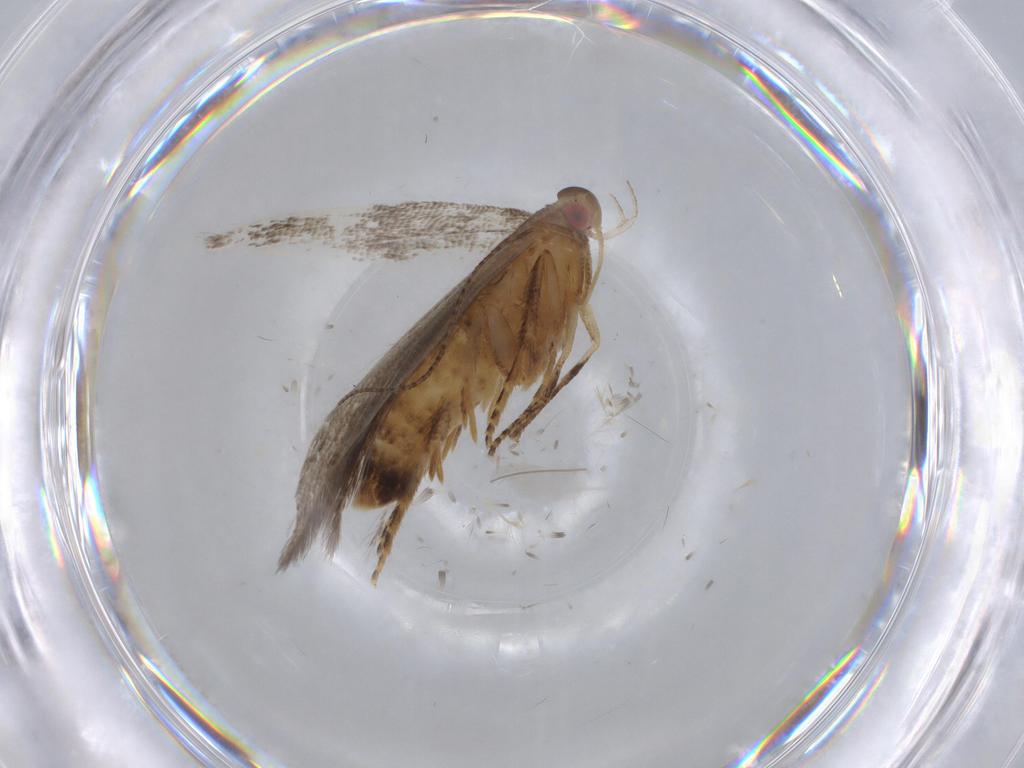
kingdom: Animalia
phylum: Arthropoda
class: Insecta
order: Lepidoptera
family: Gelechiidae
